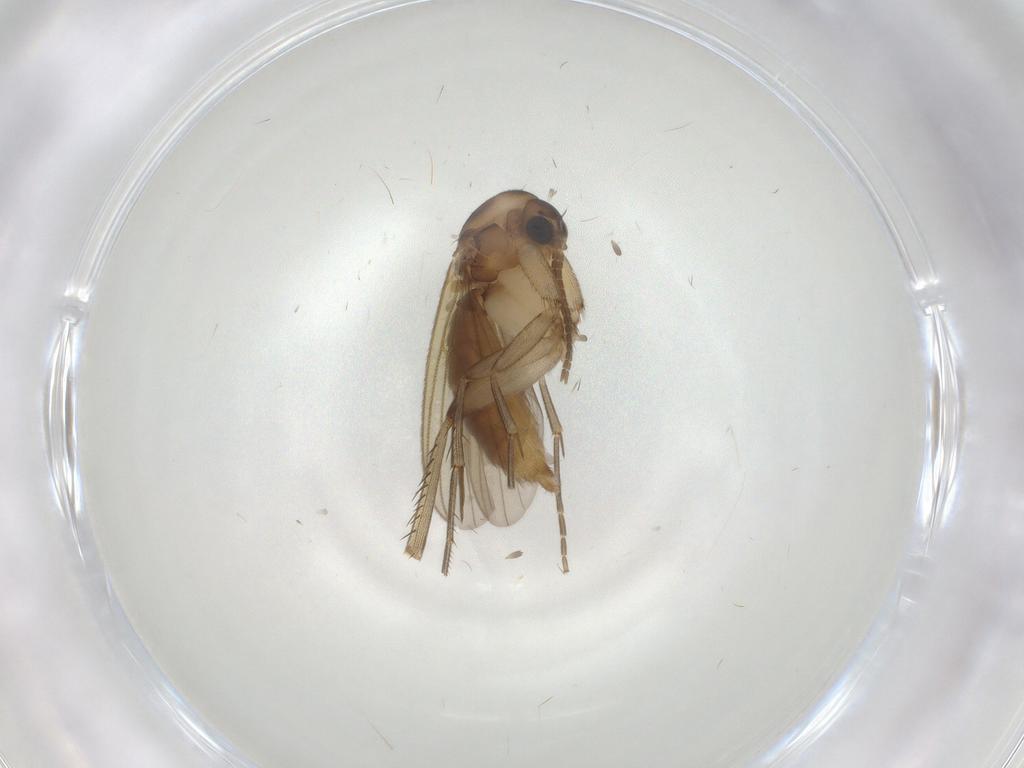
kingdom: Animalia
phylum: Arthropoda
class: Insecta
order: Diptera
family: Mycetophilidae
